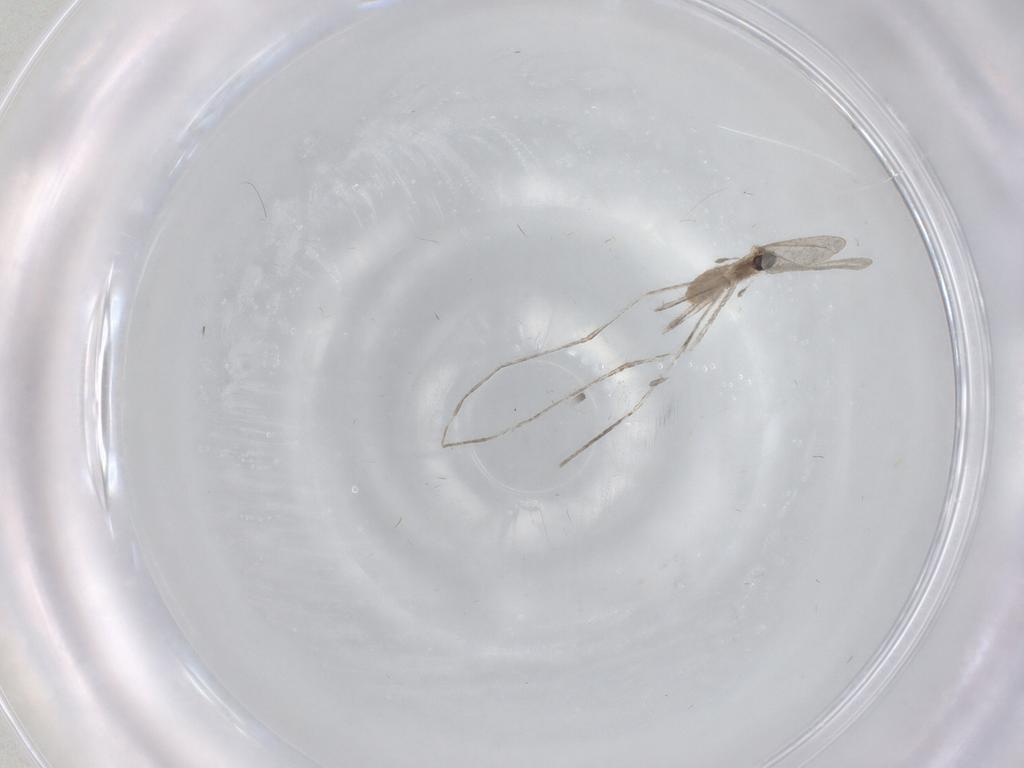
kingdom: Animalia
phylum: Arthropoda
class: Insecta
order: Diptera
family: Cecidomyiidae
